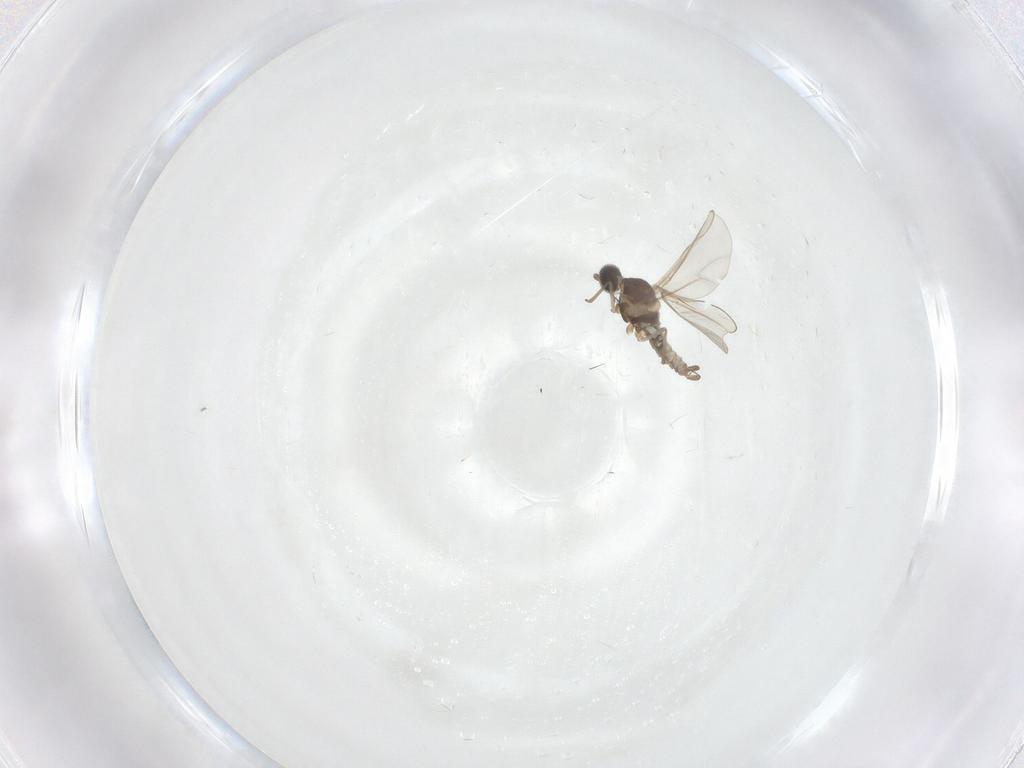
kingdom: Animalia
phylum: Arthropoda
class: Insecta
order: Diptera
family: Cecidomyiidae
